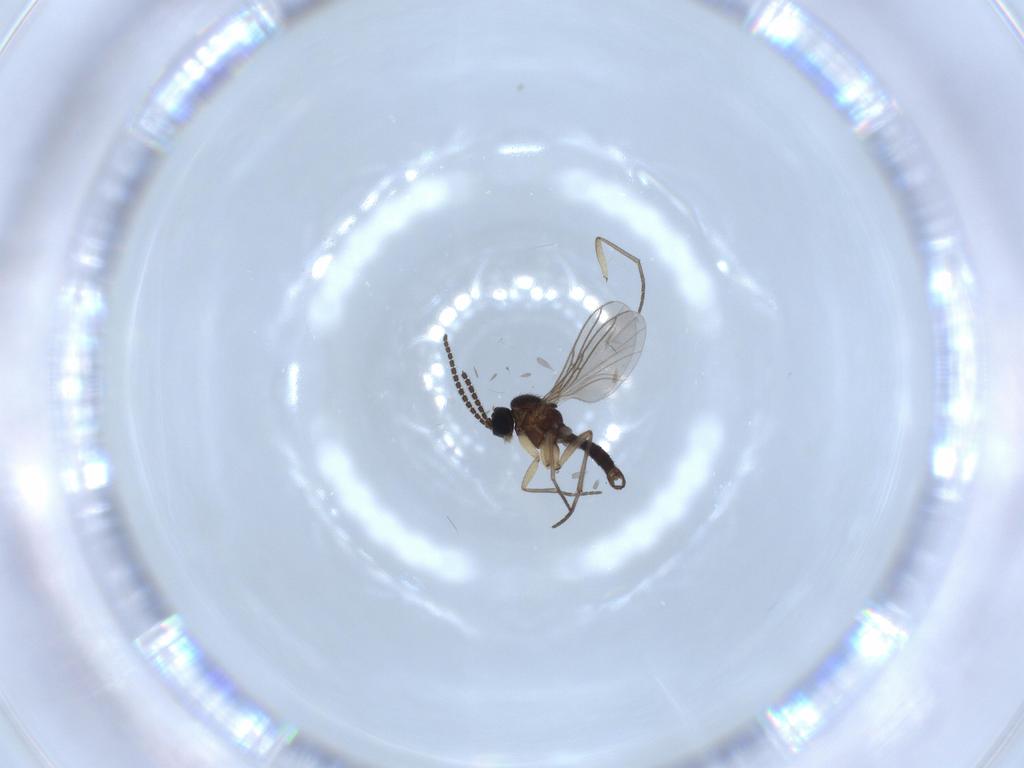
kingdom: Animalia
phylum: Arthropoda
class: Insecta
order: Diptera
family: Sciaridae
